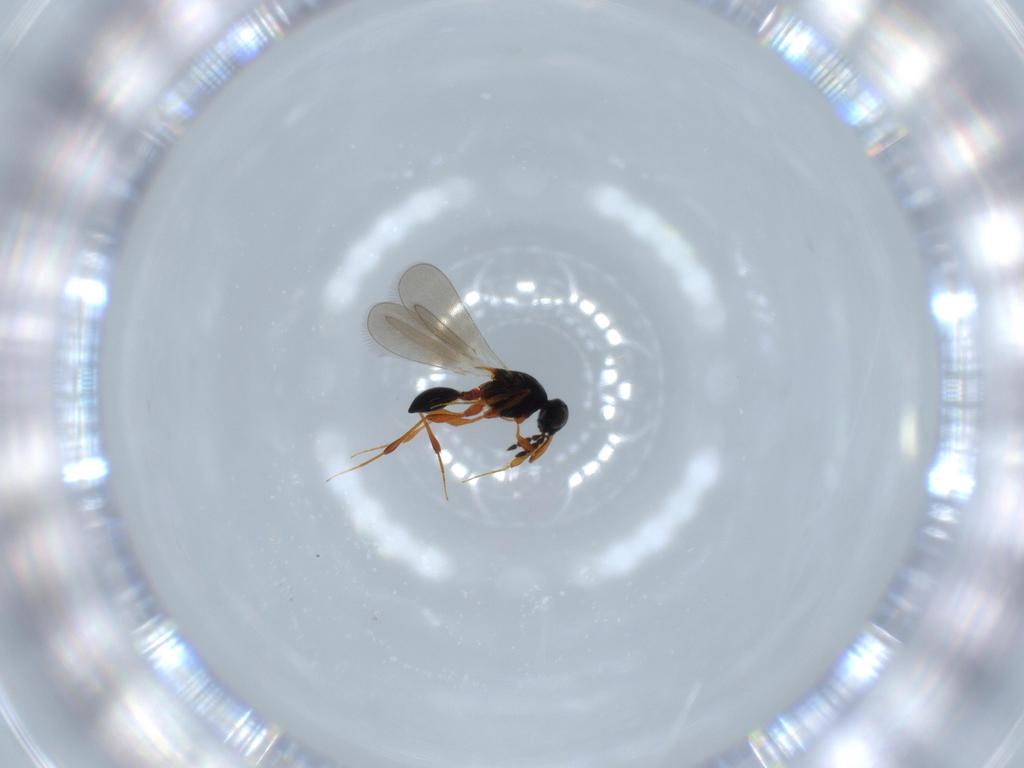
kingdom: Animalia
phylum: Arthropoda
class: Insecta
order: Hymenoptera
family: Platygastridae
